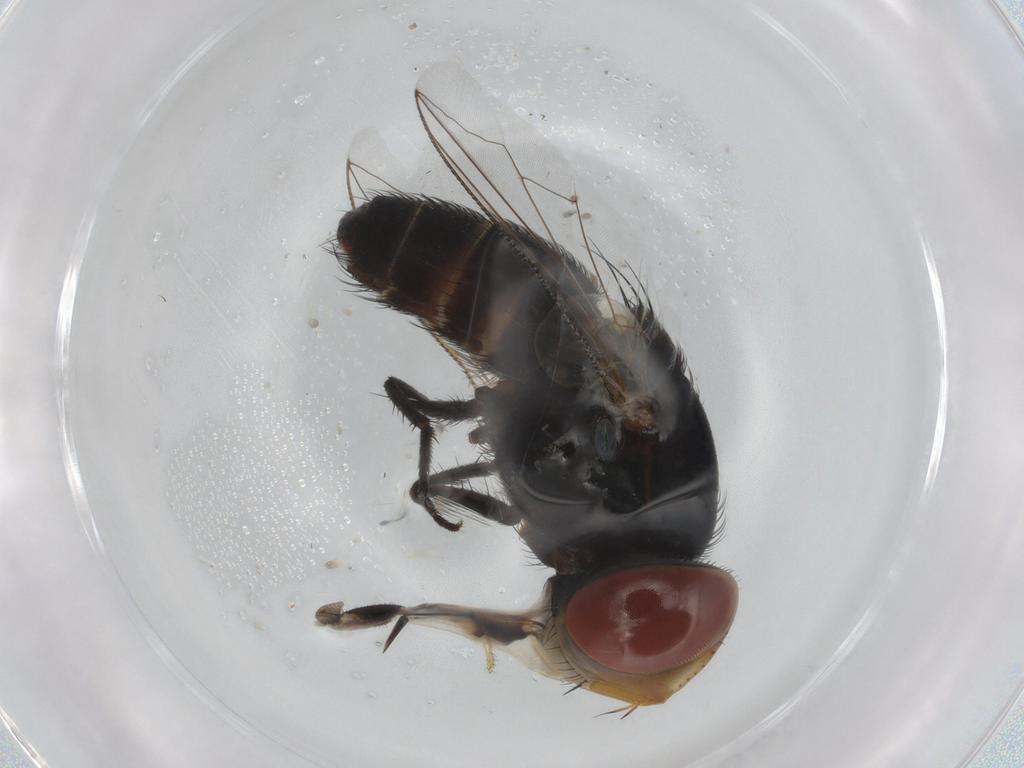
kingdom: Animalia
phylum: Arthropoda
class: Insecta
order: Diptera
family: Sarcophagidae
